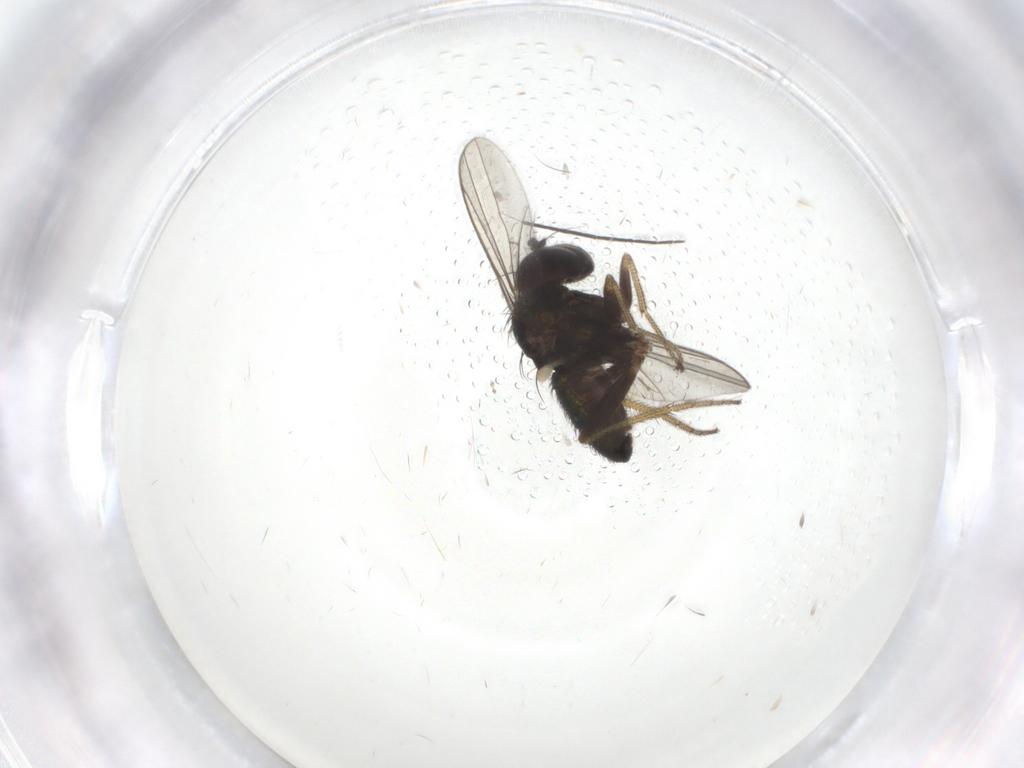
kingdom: Animalia
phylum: Arthropoda
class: Insecta
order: Diptera
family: Chironomidae
